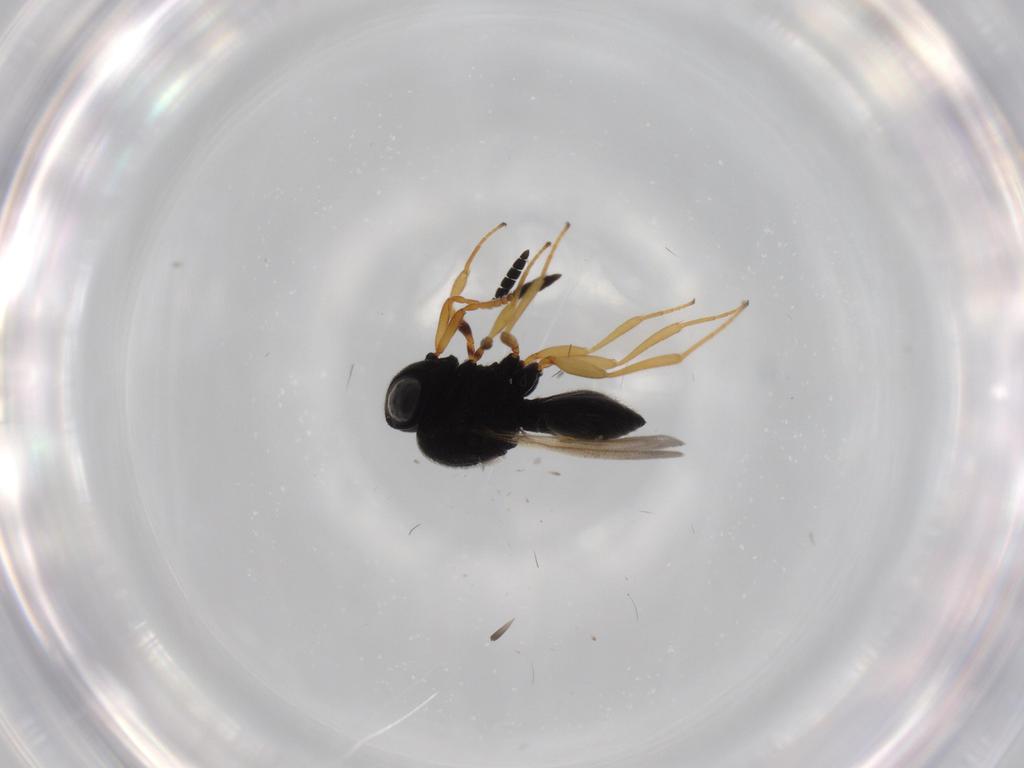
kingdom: Animalia
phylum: Arthropoda
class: Insecta
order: Hymenoptera
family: Scelionidae
